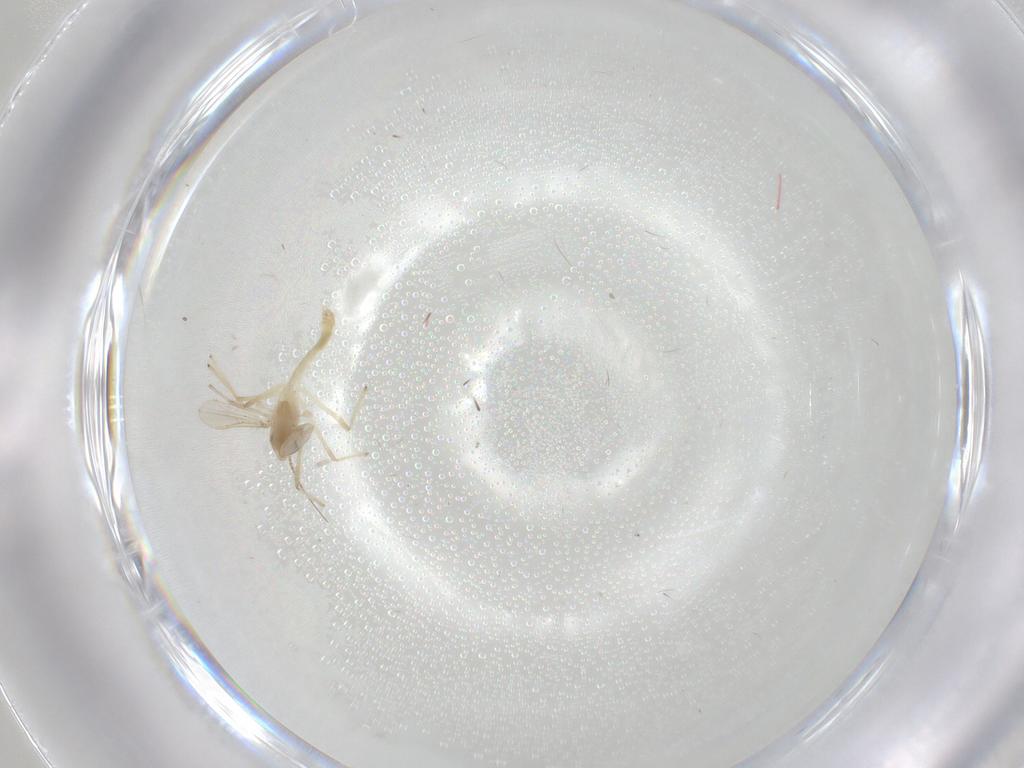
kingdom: Animalia
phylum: Arthropoda
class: Insecta
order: Diptera
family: Chironomidae
